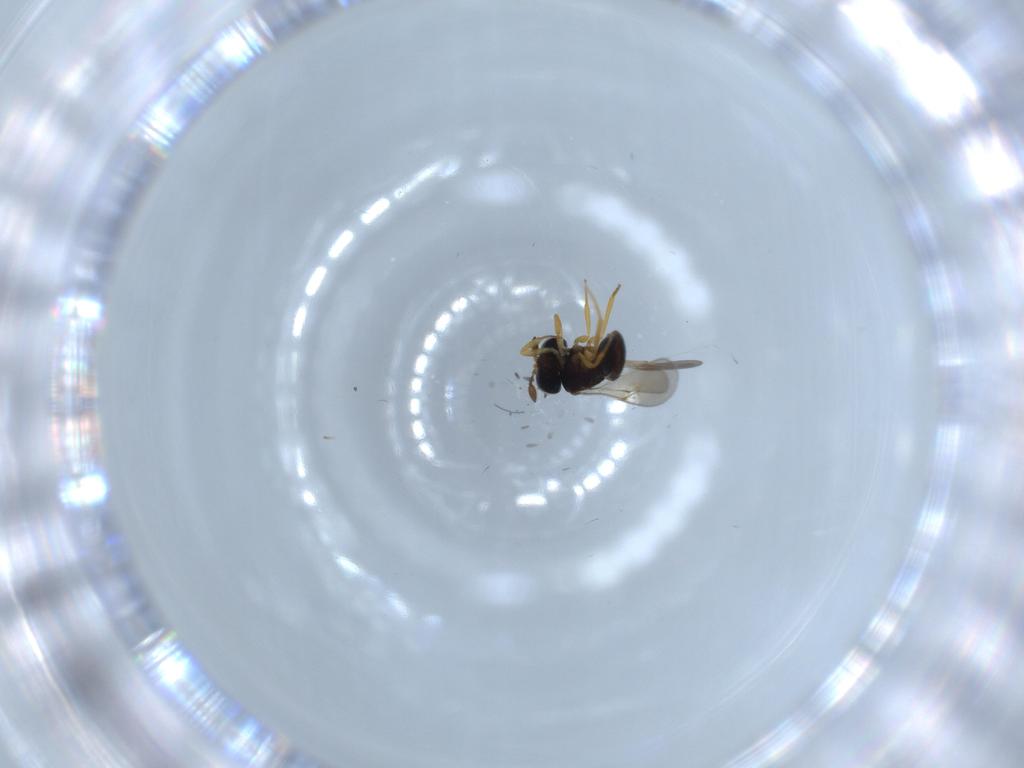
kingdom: Animalia
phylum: Arthropoda
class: Insecta
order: Hymenoptera
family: Scelionidae
